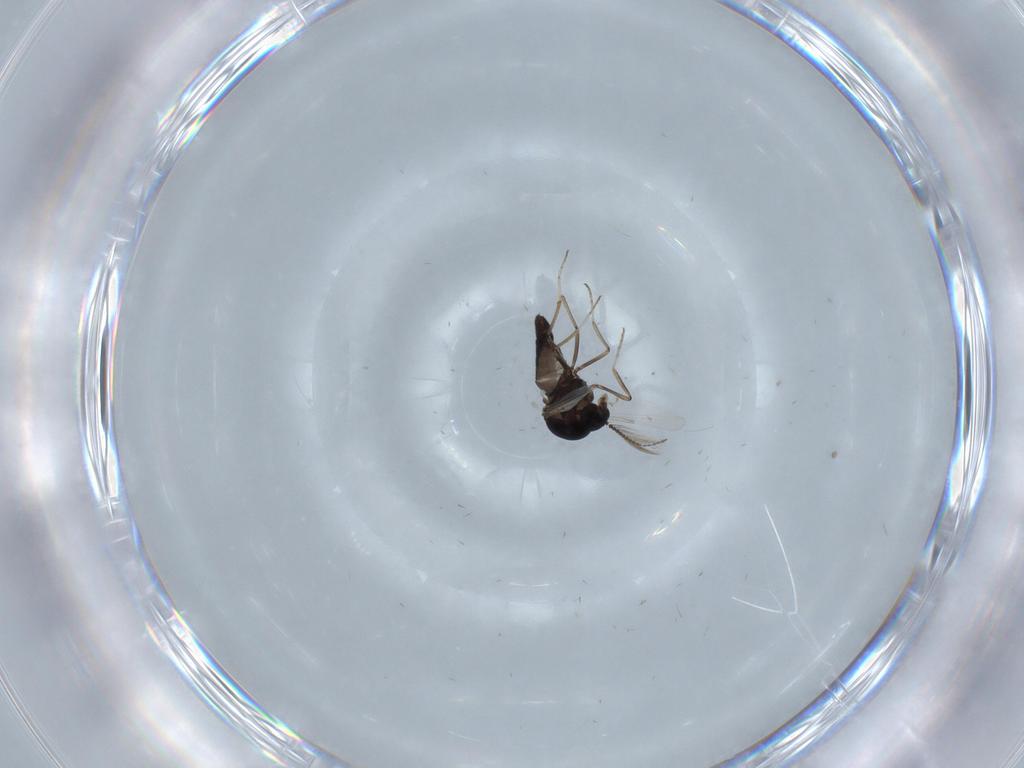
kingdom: Animalia
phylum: Arthropoda
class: Insecta
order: Diptera
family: Ceratopogonidae
